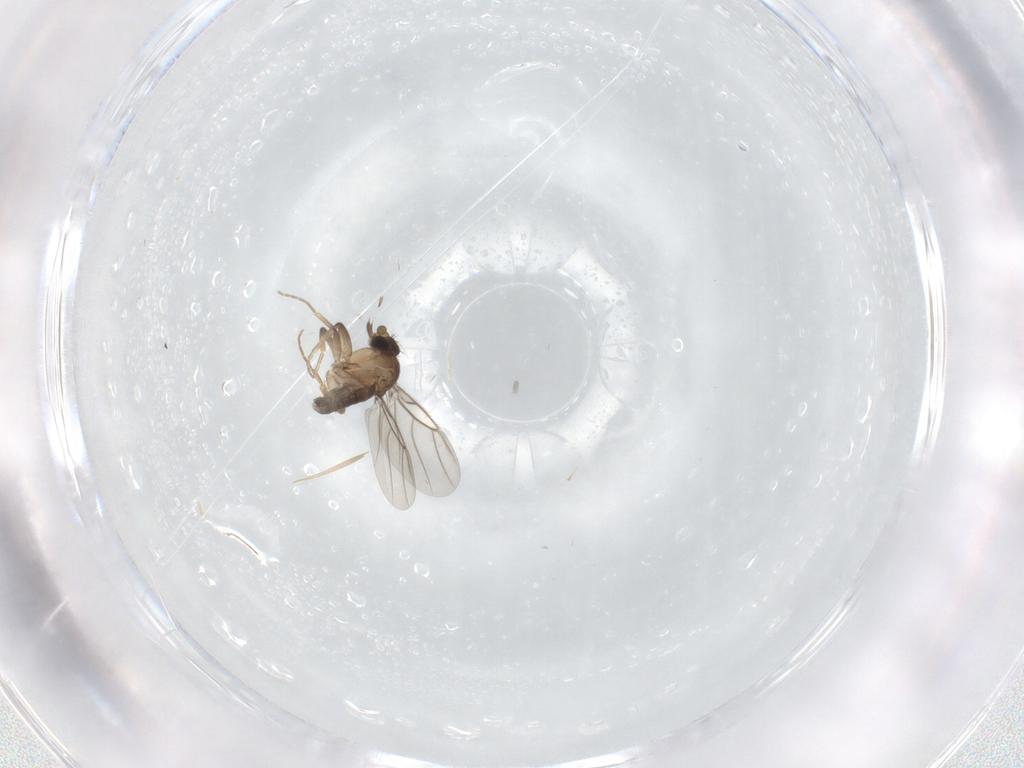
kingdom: Animalia
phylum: Arthropoda
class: Insecta
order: Diptera
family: Phoridae
